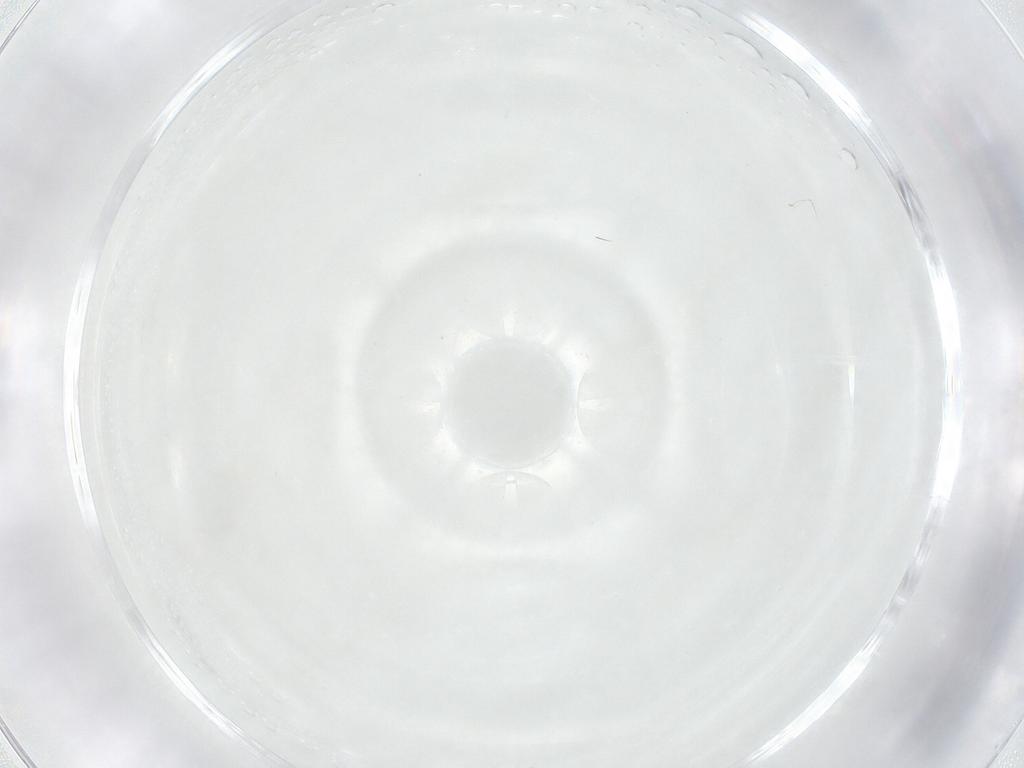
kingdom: Animalia
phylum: Arthropoda
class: Insecta
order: Diptera
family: Cecidomyiidae
